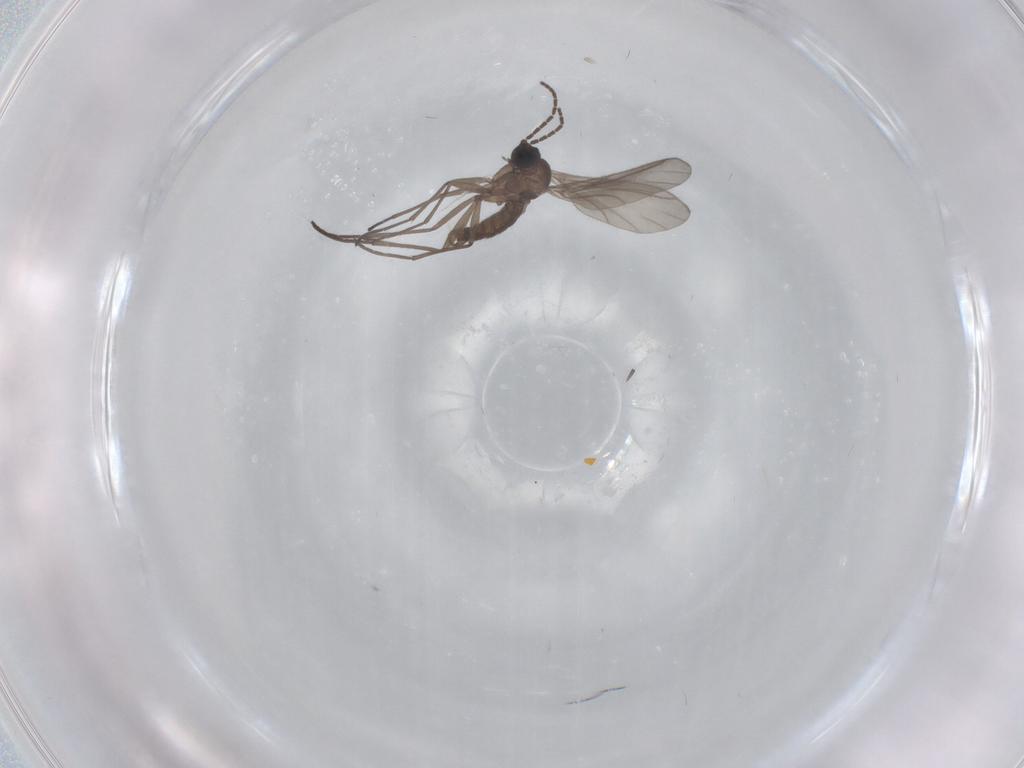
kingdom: Animalia
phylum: Arthropoda
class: Insecta
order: Diptera
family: Sciaridae
